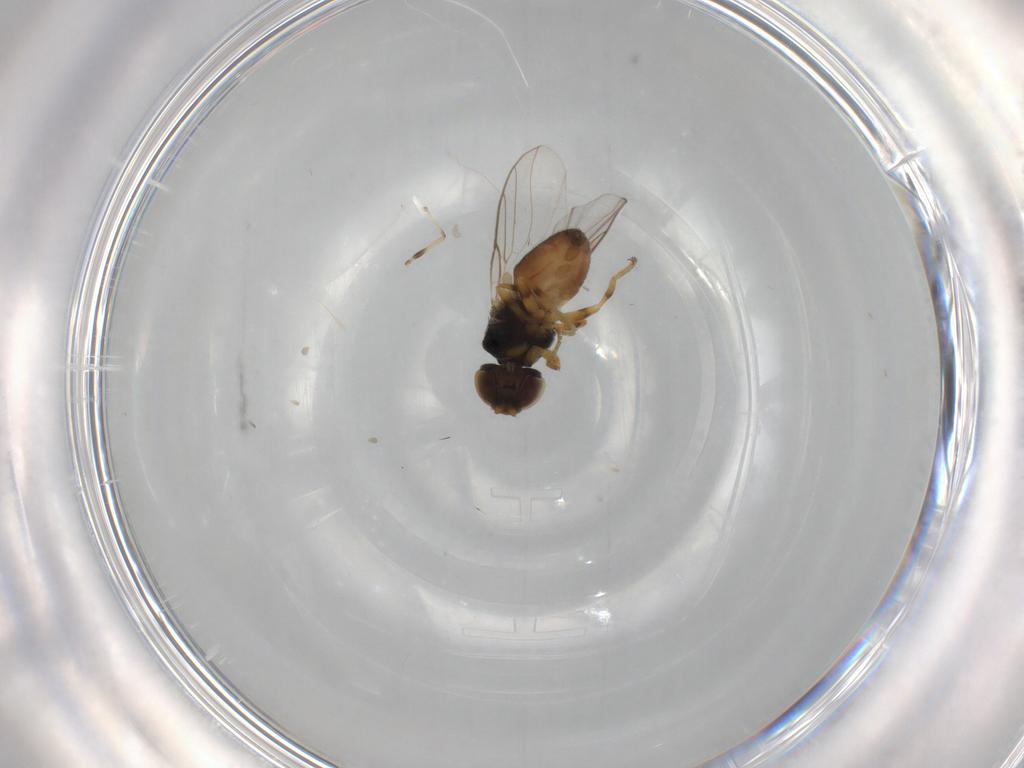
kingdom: Animalia
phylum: Arthropoda
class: Insecta
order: Diptera
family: Chloropidae
